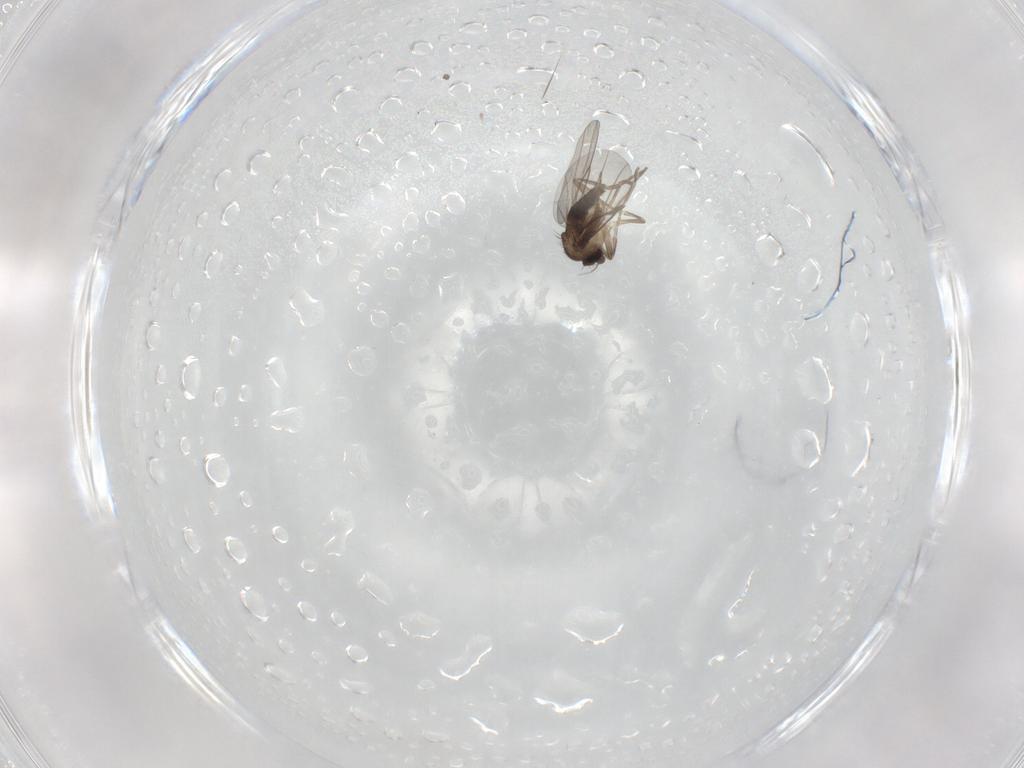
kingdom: Animalia
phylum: Arthropoda
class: Insecta
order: Diptera
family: Phoridae
